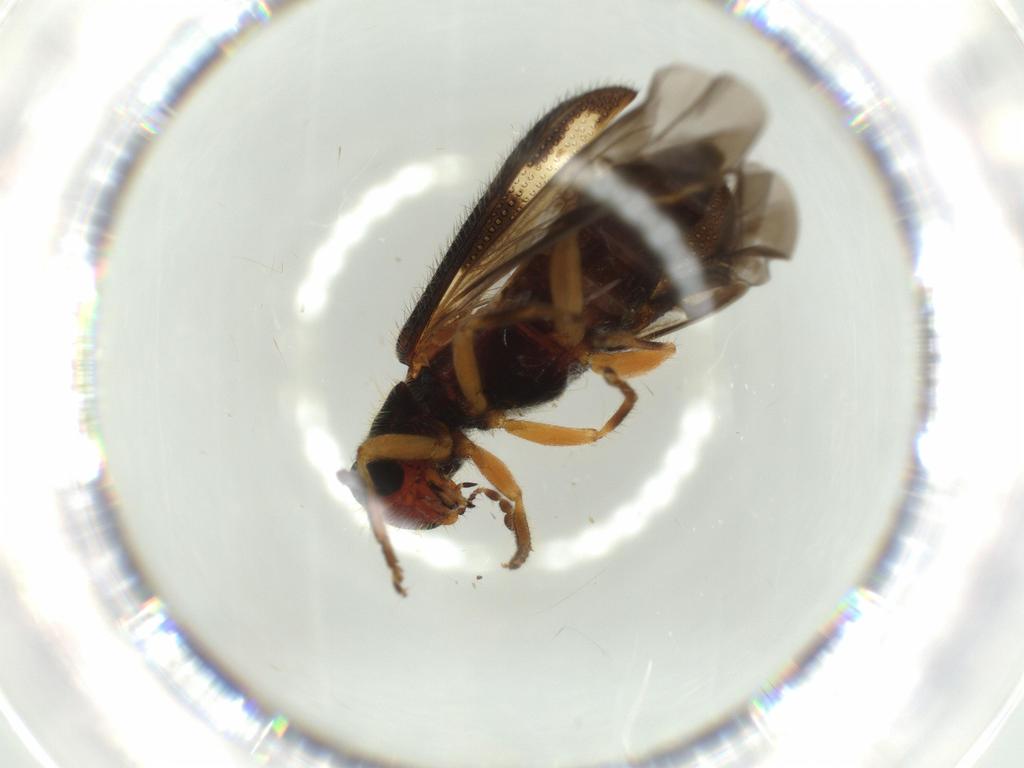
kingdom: Animalia
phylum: Arthropoda
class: Insecta
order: Coleoptera
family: Cleridae
